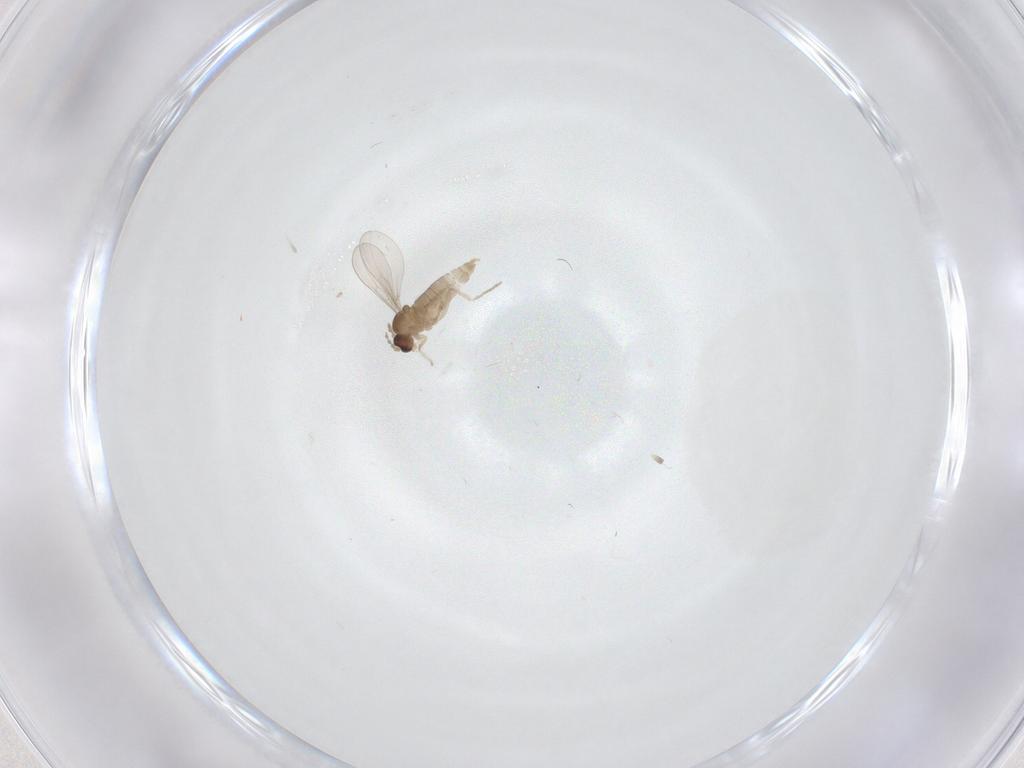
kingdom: Animalia
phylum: Arthropoda
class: Insecta
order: Diptera
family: Cecidomyiidae
